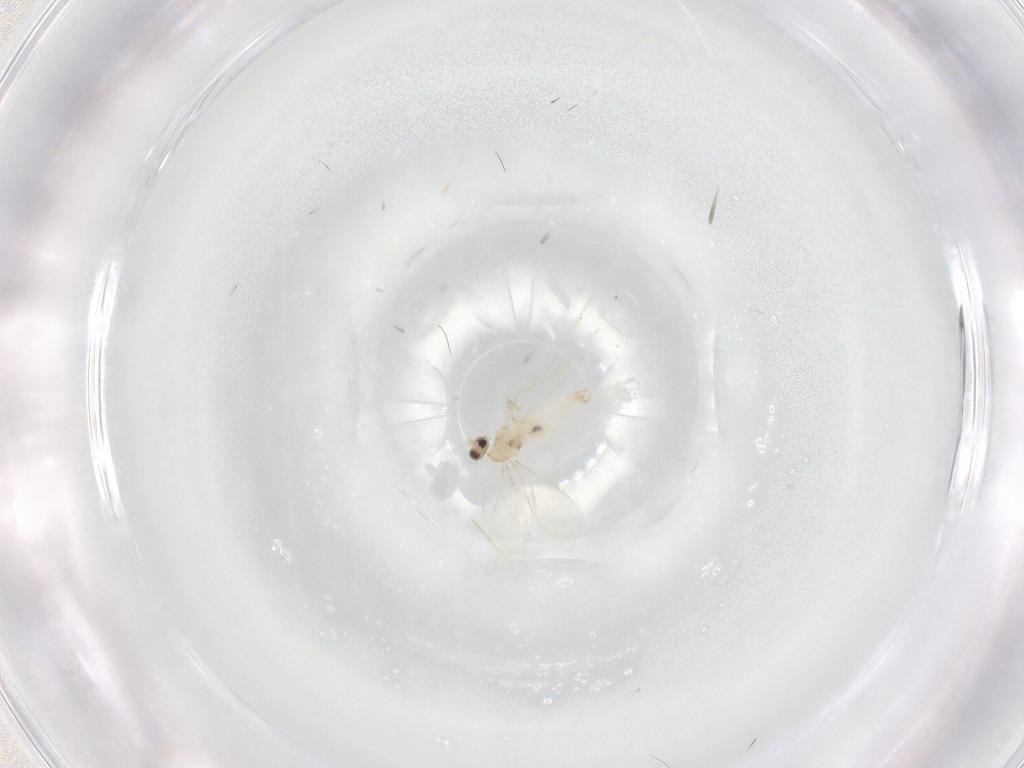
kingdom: Animalia
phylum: Arthropoda
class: Insecta
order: Diptera
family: Phoridae
